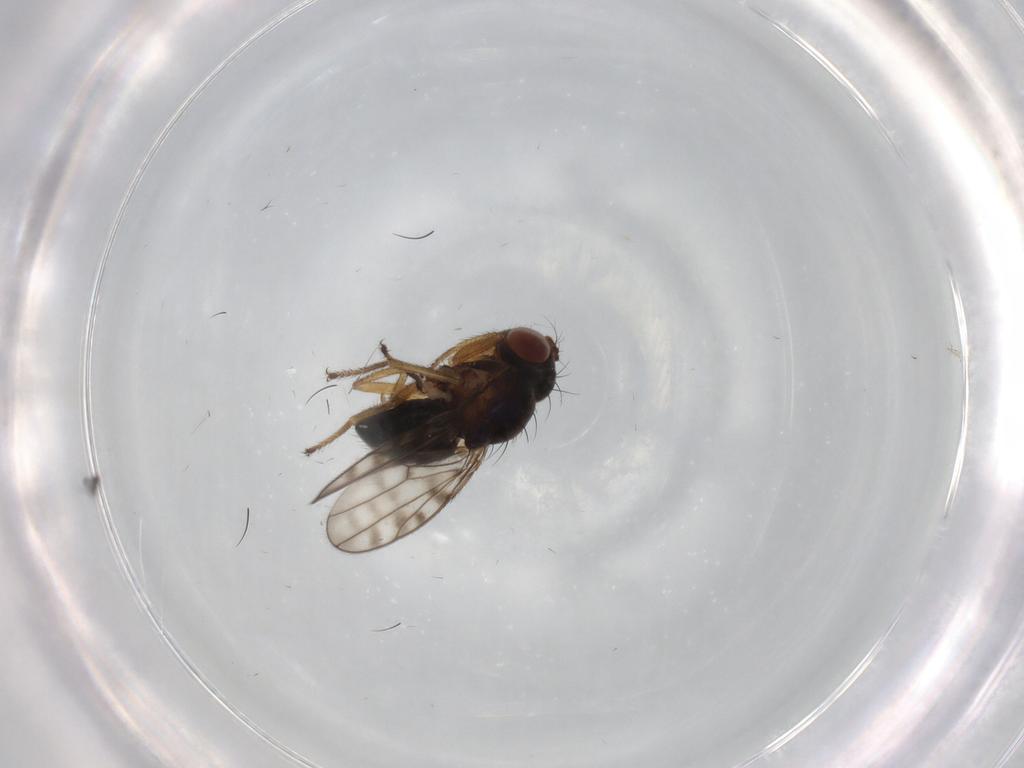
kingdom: Animalia
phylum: Arthropoda
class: Insecta
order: Diptera
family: Ephydridae
